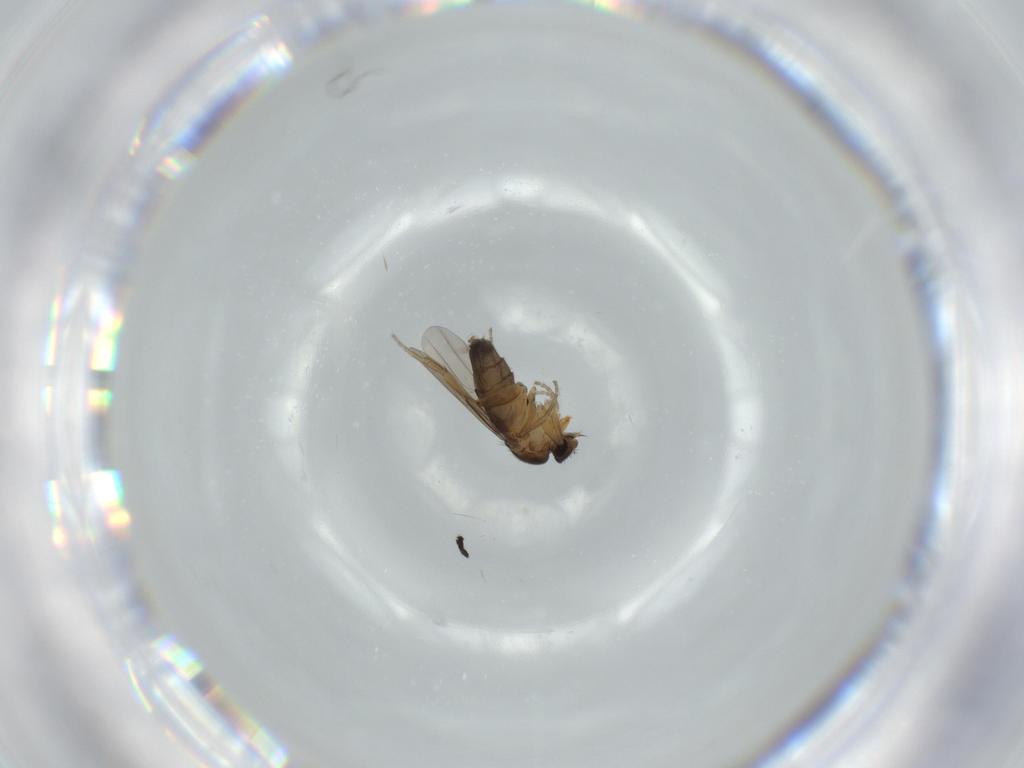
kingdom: Animalia
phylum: Arthropoda
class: Insecta
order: Diptera
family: Phoridae
